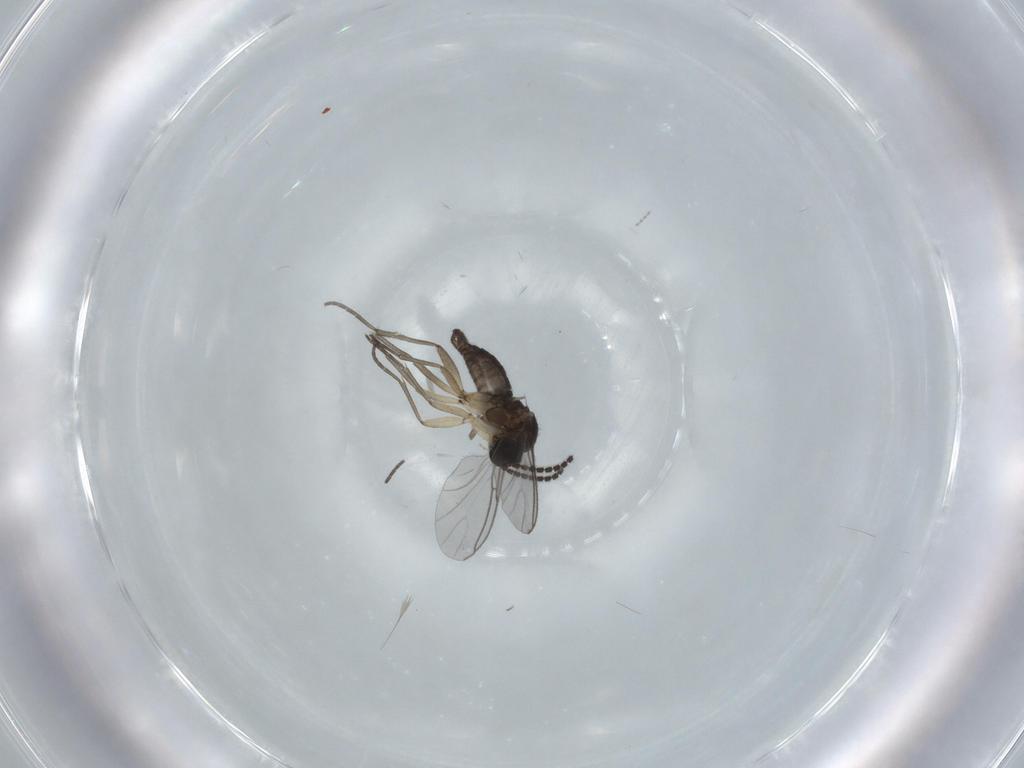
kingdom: Animalia
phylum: Arthropoda
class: Insecta
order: Diptera
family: Sciaridae
